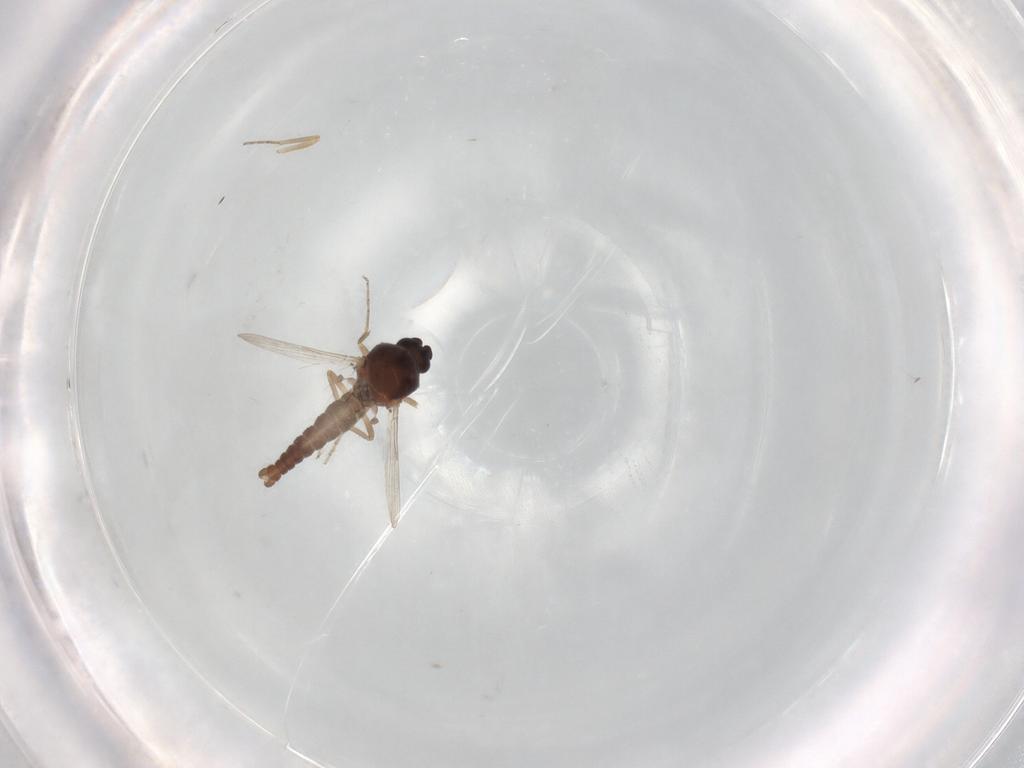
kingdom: Animalia
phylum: Arthropoda
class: Insecta
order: Diptera
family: Ceratopogonidae
